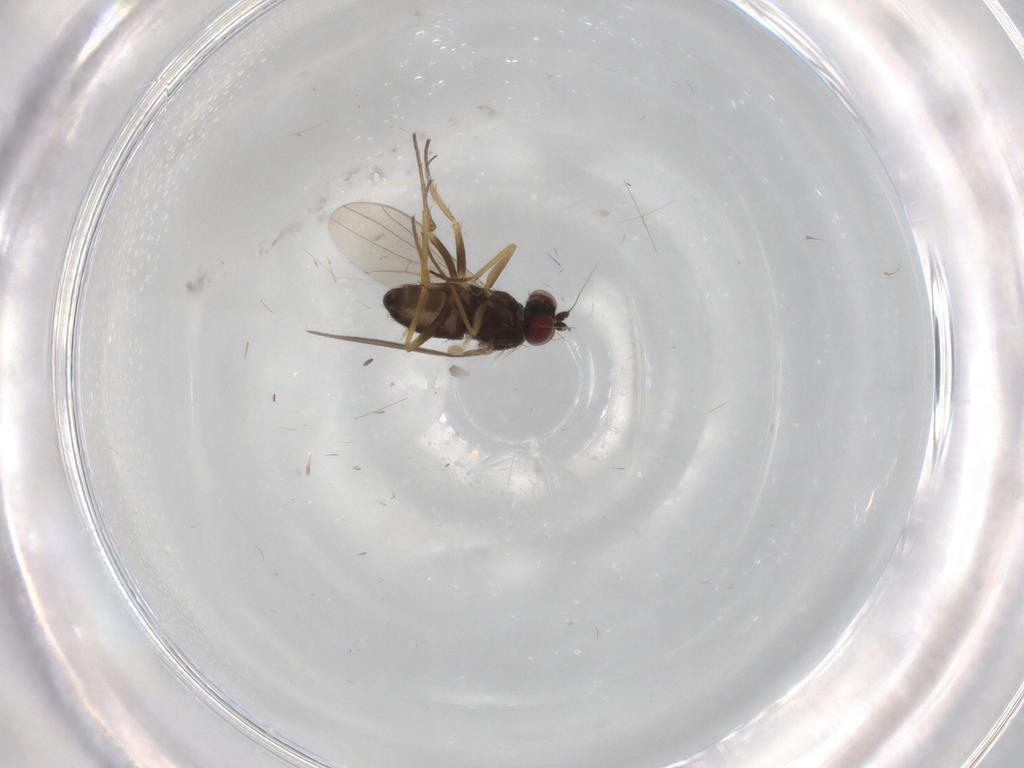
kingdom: Animalia
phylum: Arthropoda
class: Insecta
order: Diptera
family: Dolichopodidae
